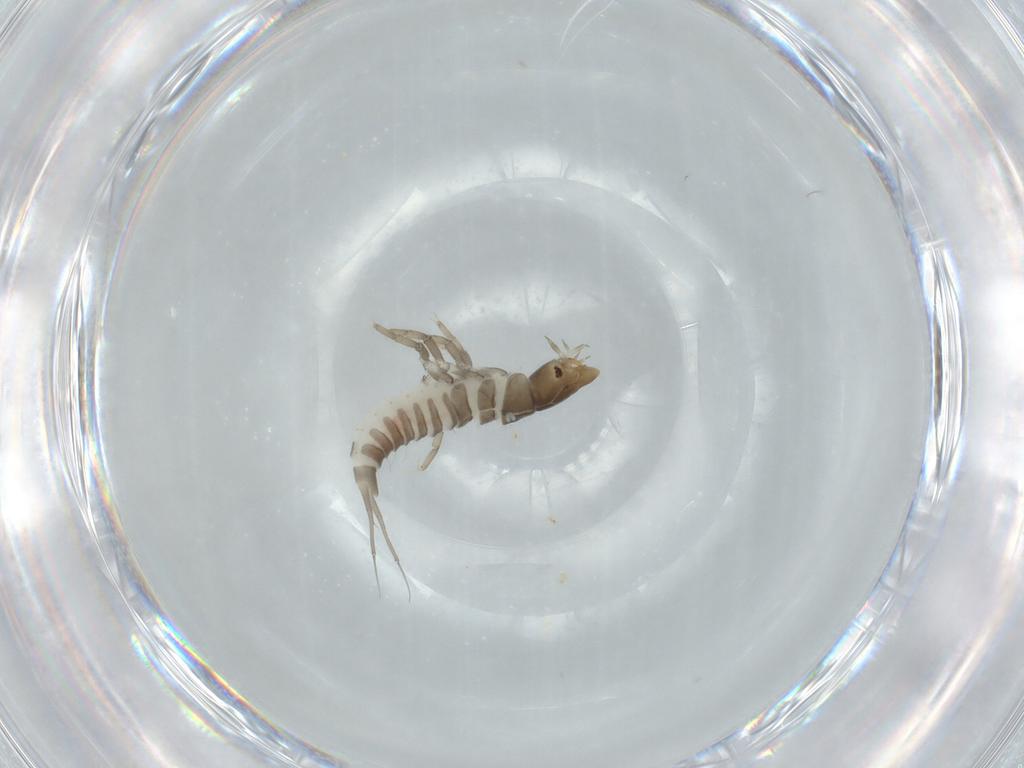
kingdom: Animalia
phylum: Arthropoda
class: Insecta
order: Coleoptera
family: Dytiscidae
